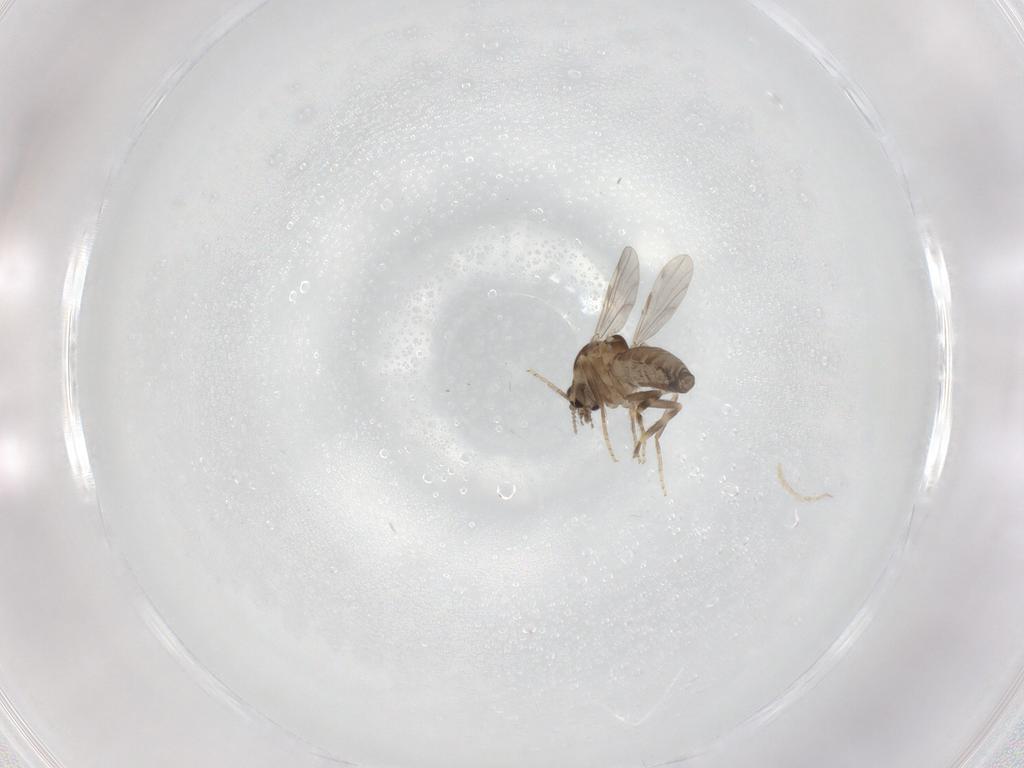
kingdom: Animalia
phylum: Arthropoda
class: Insecta
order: Diptera
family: Ceratopogonidae
